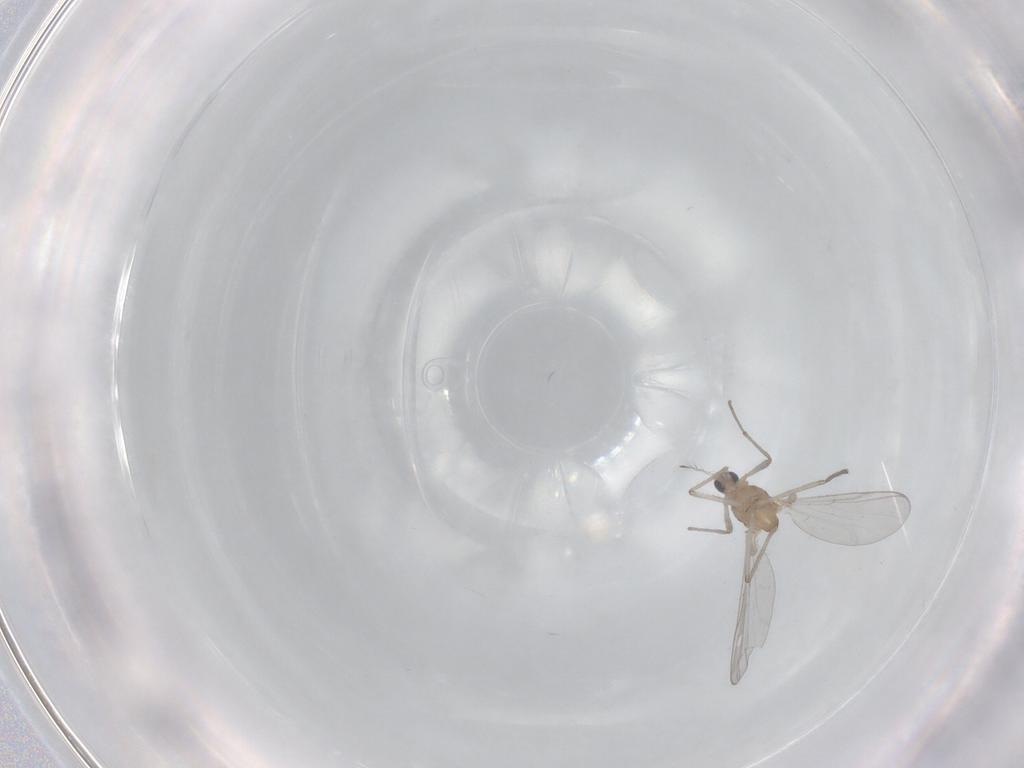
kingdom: Animalia
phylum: Arthropoda
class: Insecta
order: Diptera
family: Chironomidae
